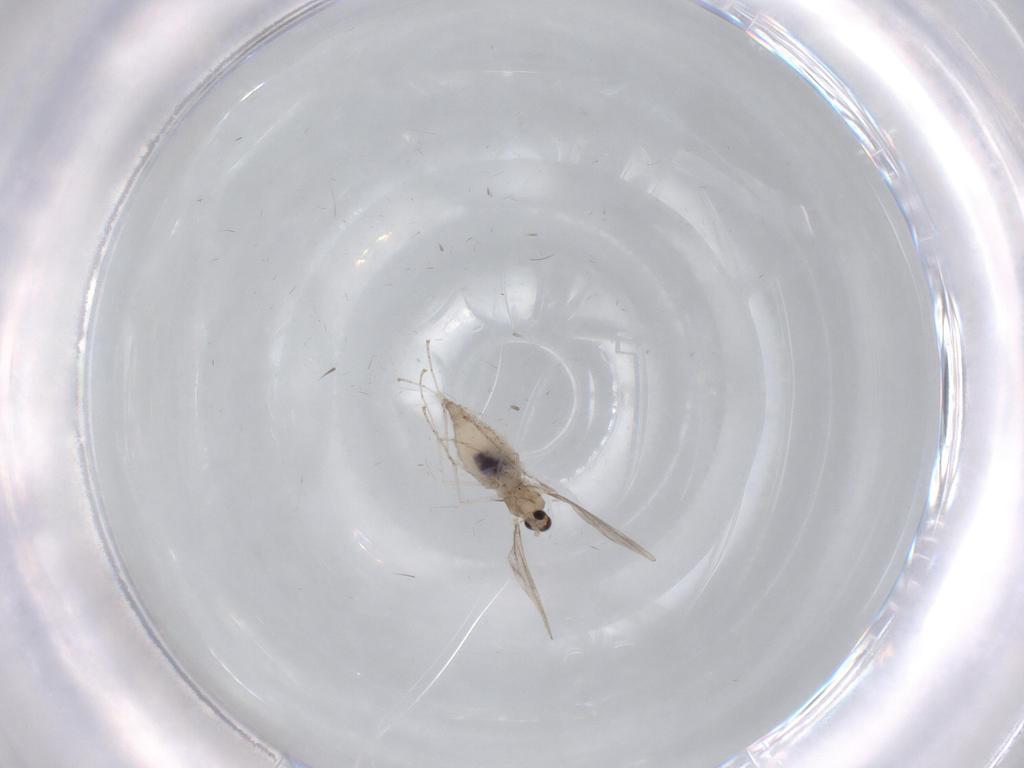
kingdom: Animalia
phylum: Arthropoda
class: Insecta
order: Diptera
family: Cecidomyiidae
